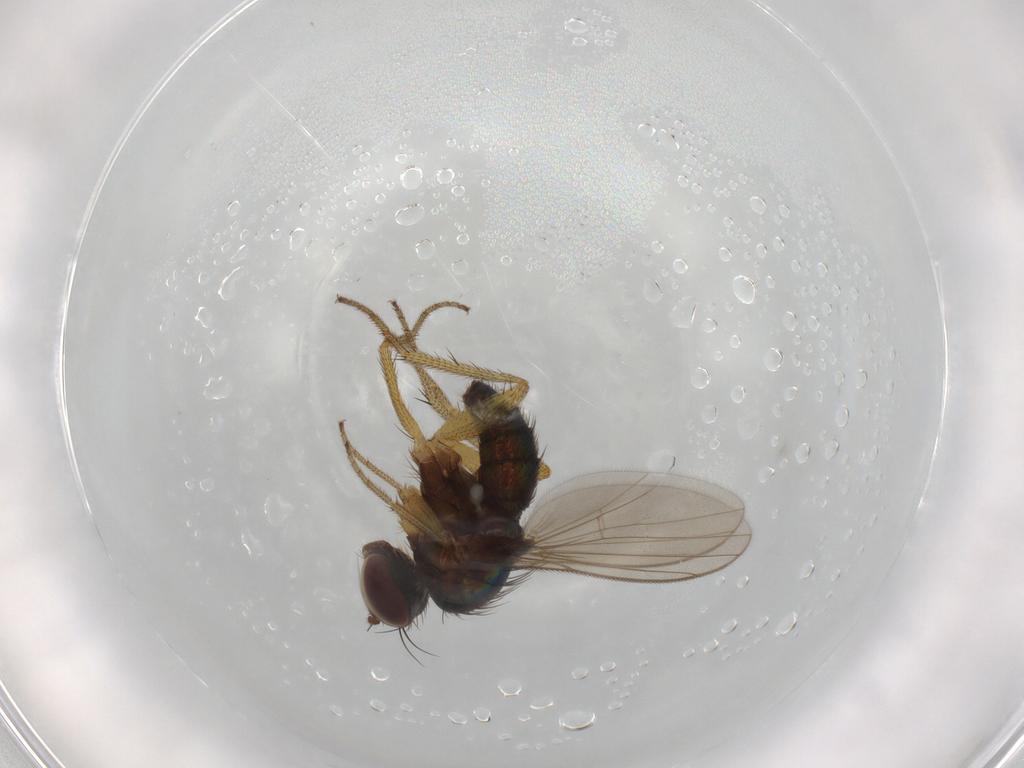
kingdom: Animalia
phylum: Arthropoda
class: Insecta
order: Diptera
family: Dolichopodidae
